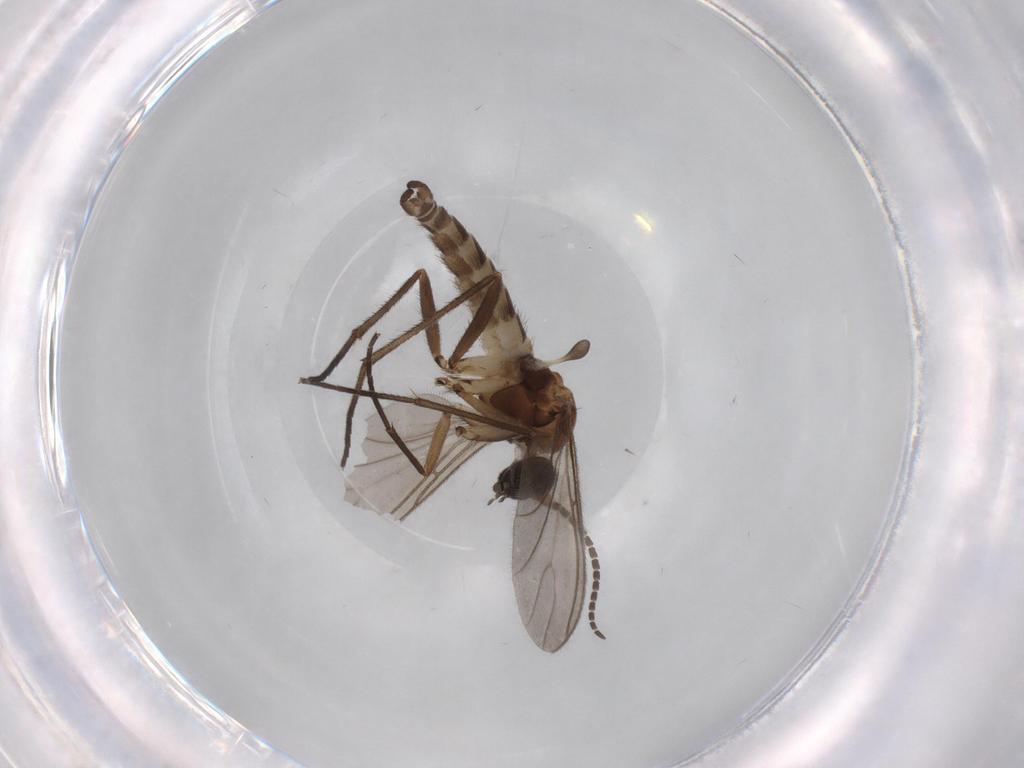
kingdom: Animalia
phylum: Arthropoda
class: Insecta
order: Diptera
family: Sciaridae
